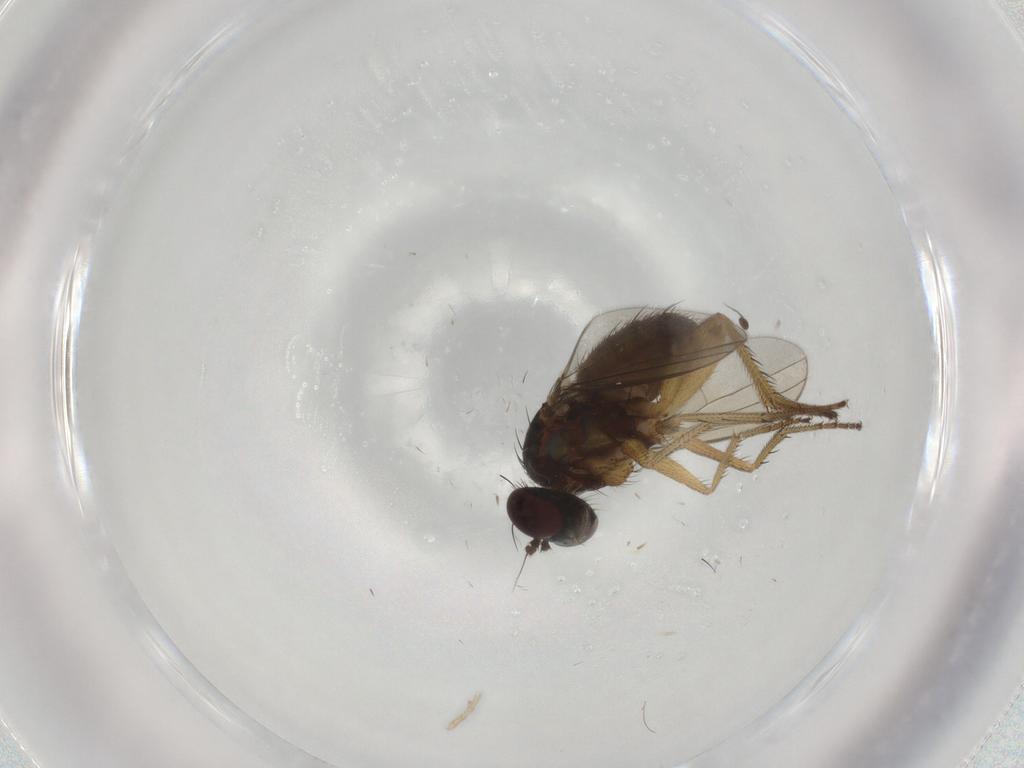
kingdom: Animalia
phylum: Arthropoda
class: Insecta
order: Diptera
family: Dolichopodidae
